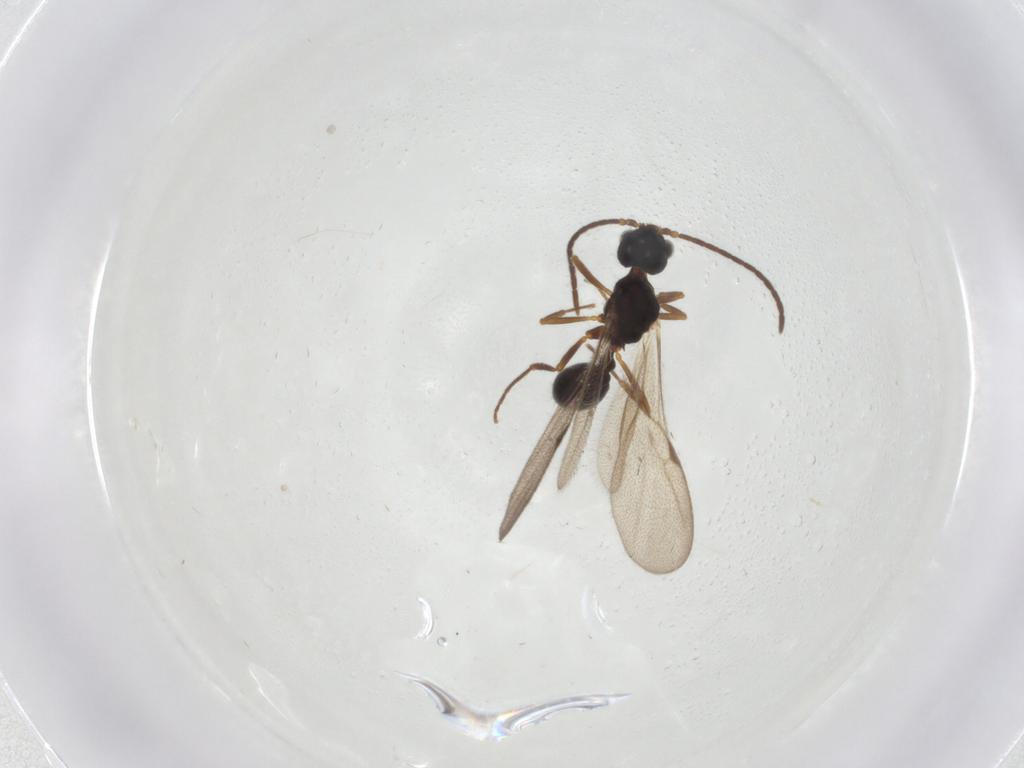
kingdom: Animalia
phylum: Arthropoda
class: Insecta
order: Hymenoptera
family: Formicidae
